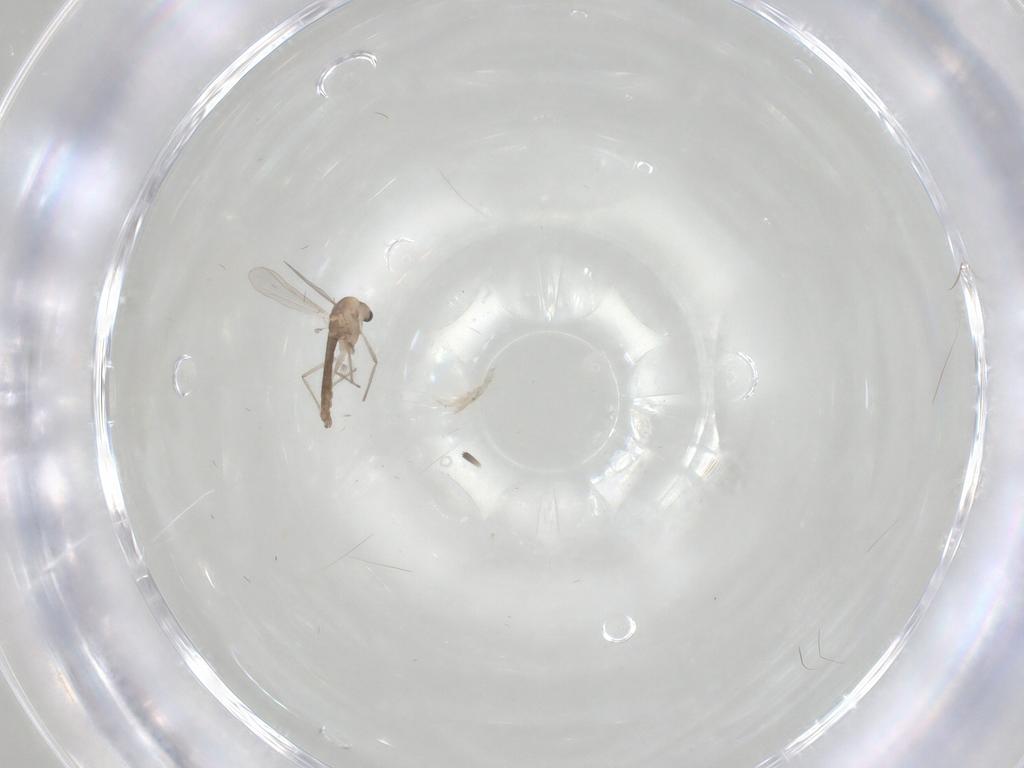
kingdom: Animalia
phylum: Arthropoda
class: Insecta
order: Diptera
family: Chironomidae
